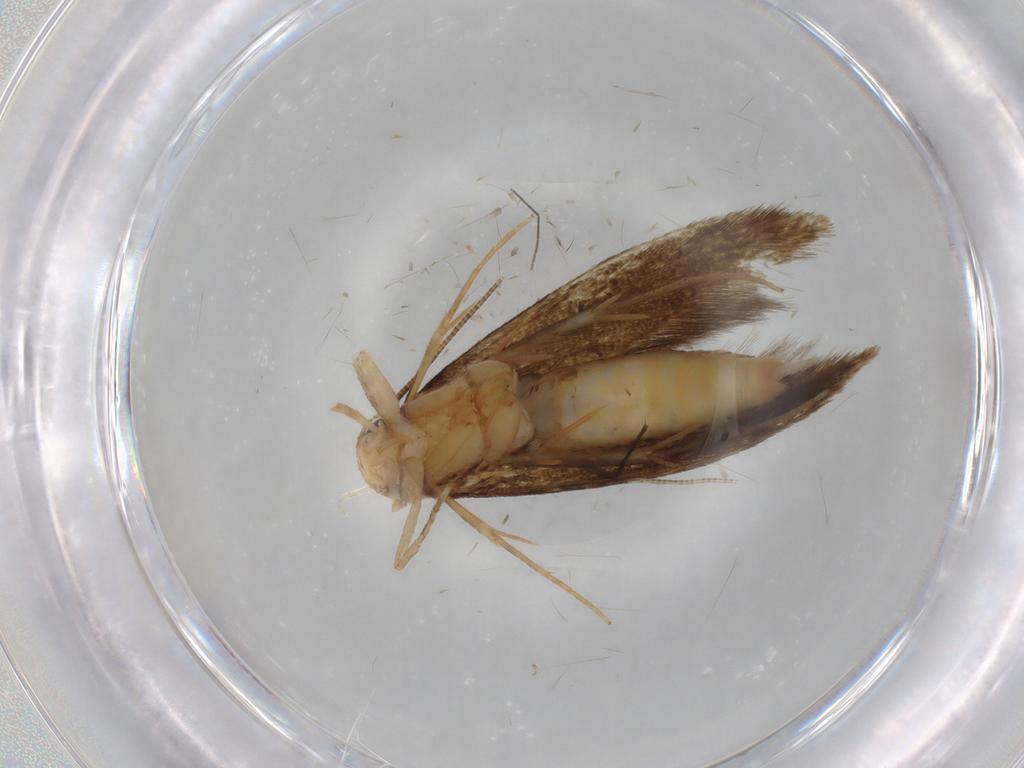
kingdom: Animalia
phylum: Arthropoda
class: Insecta
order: Lepidoptera
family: Tineidae
